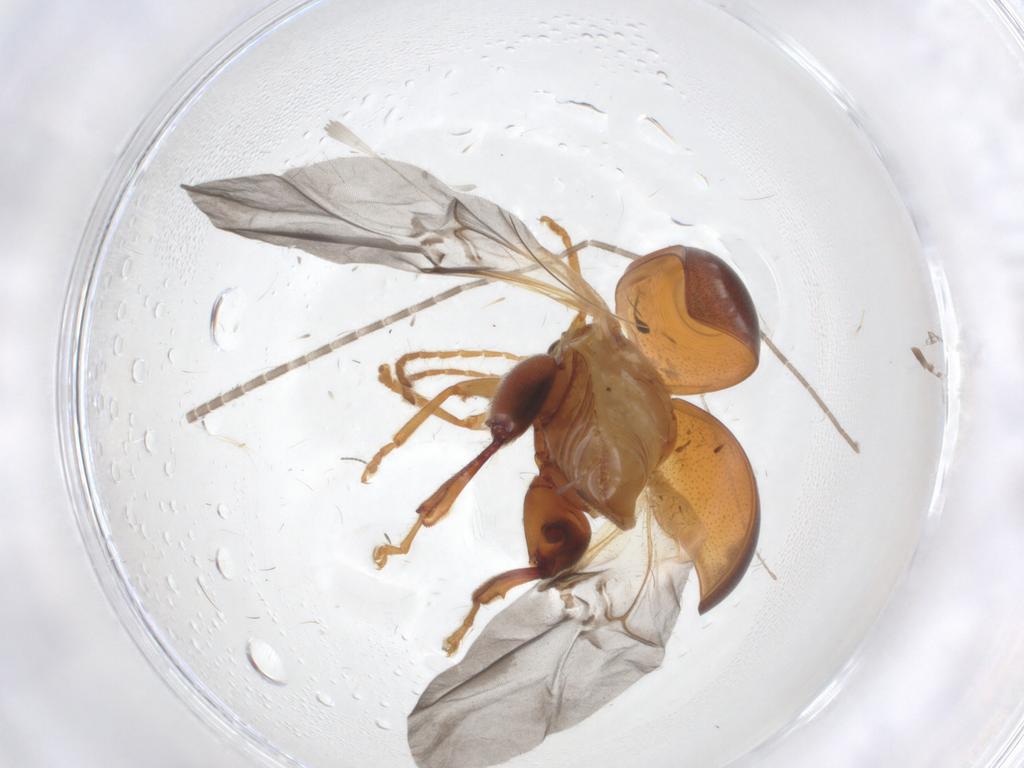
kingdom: Animalia
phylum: Arthropoda
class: Insecta
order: Coleoptera
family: Chrysomelidae
